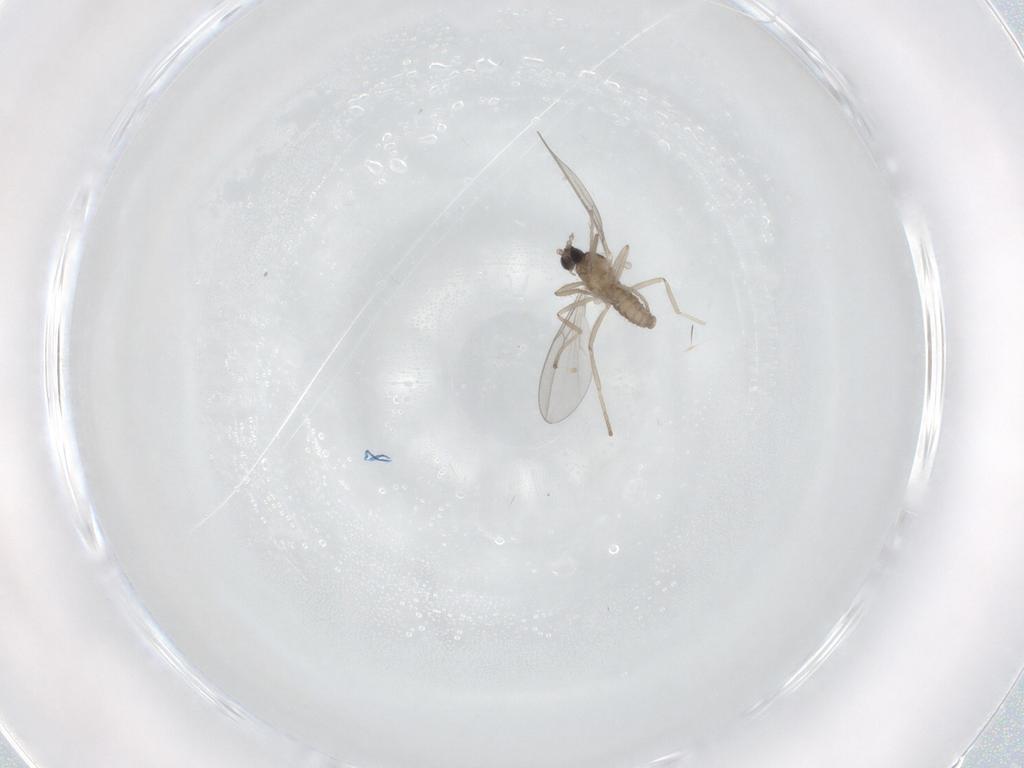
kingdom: Animalia
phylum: Arthropoda
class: Insecta
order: Diptera
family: Cecidomyiidae
